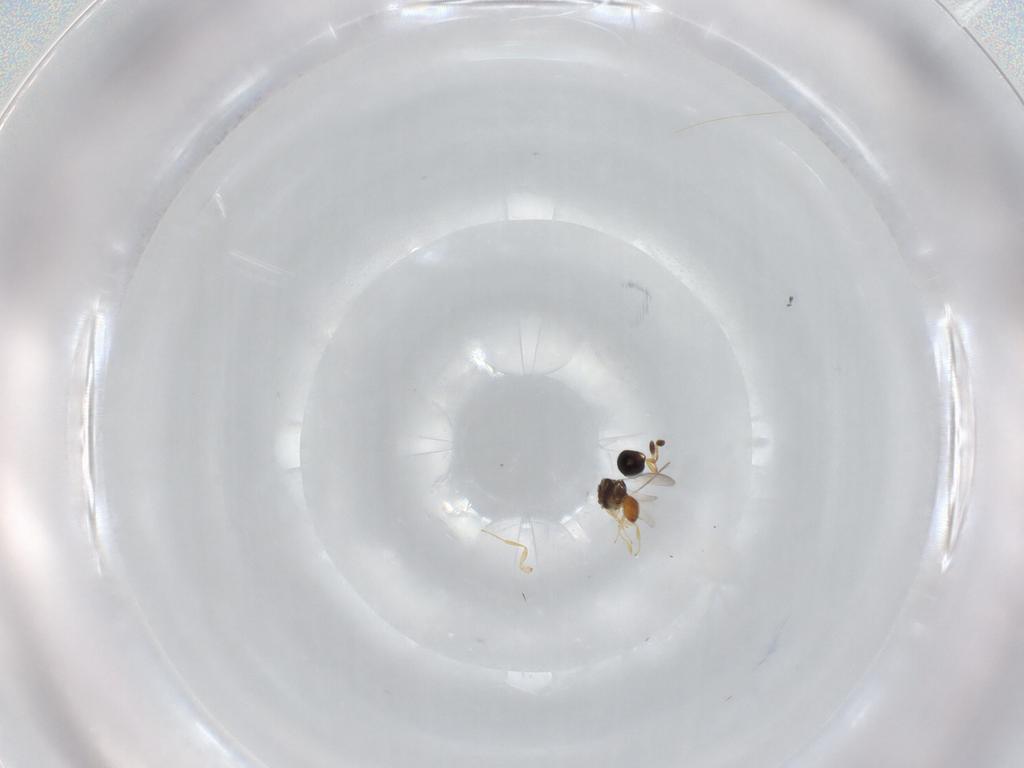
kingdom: Animalia
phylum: Arthropoda
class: Insecta
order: Hymenoptera
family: Scelionidae
